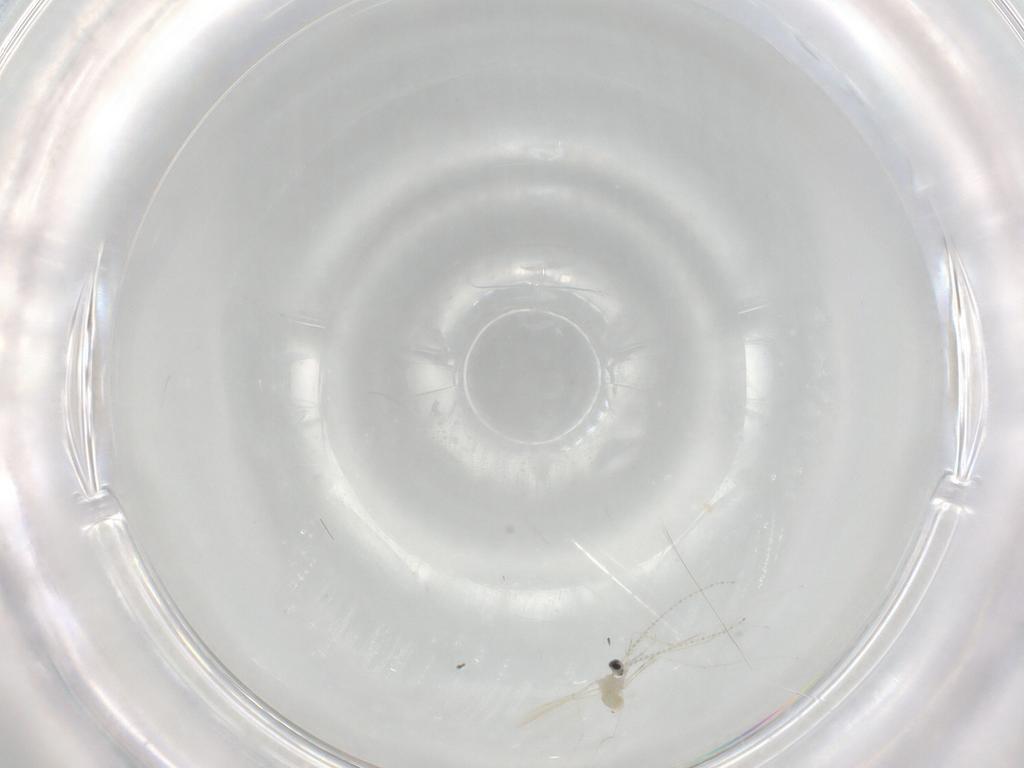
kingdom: Animalia
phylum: Arthropoda
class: Insecta
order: Diptera
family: Cecidomyiidae
